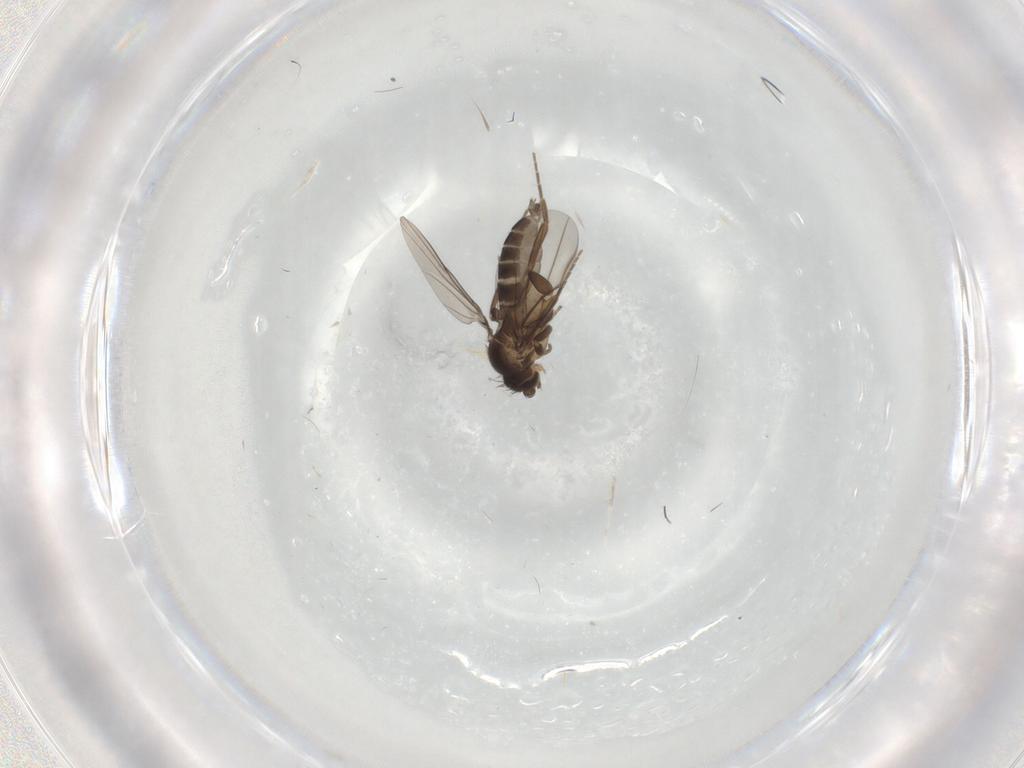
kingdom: Animalia
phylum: Arthropoda
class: Insecta
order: Diptera
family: Phoridae
